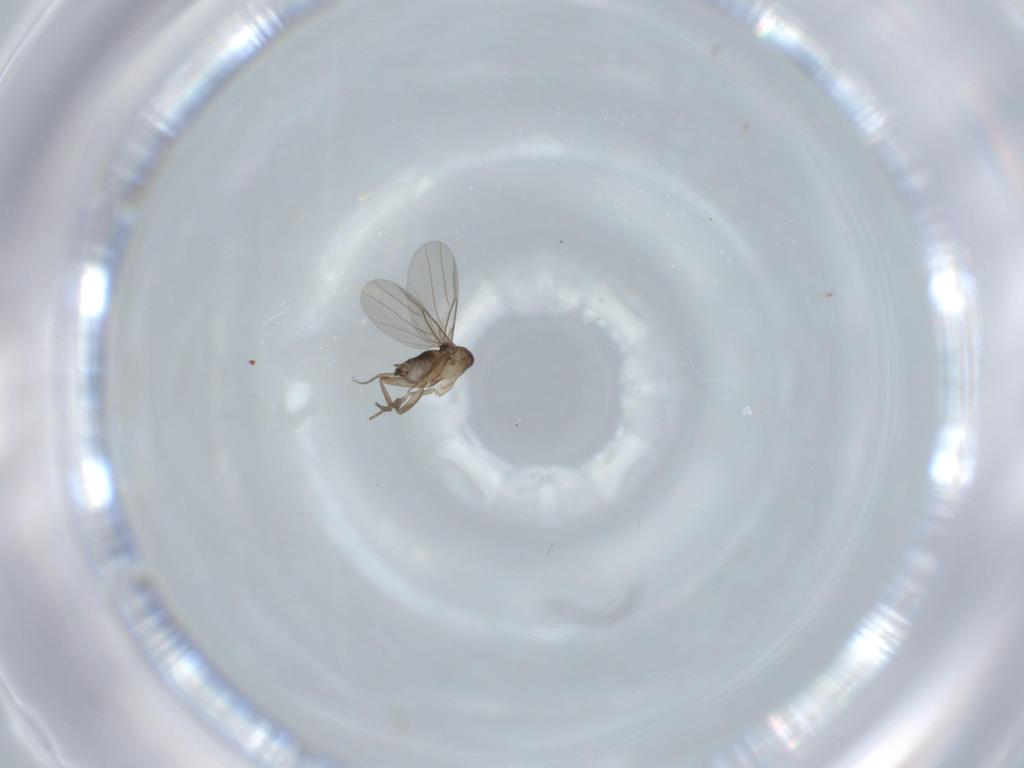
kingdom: Animalia
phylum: Arthropoda
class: Insecta
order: Diptera
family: Phoridae
